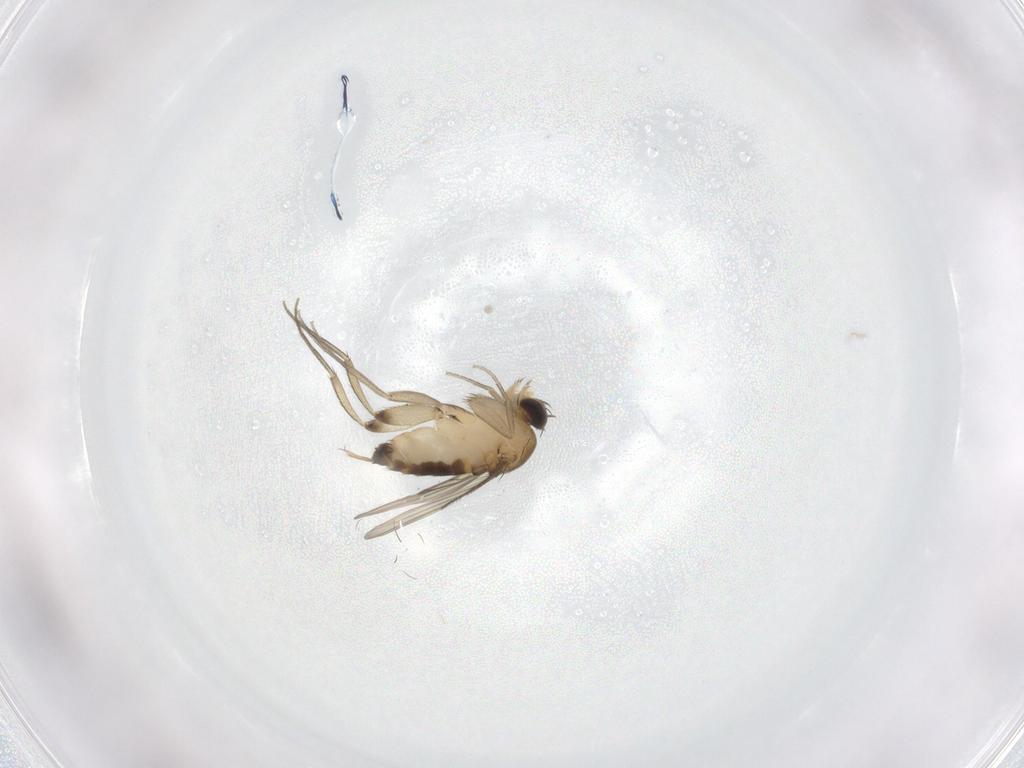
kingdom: Animalia
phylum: Arthropoda
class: Insecta
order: Diptera
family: Phoridae
